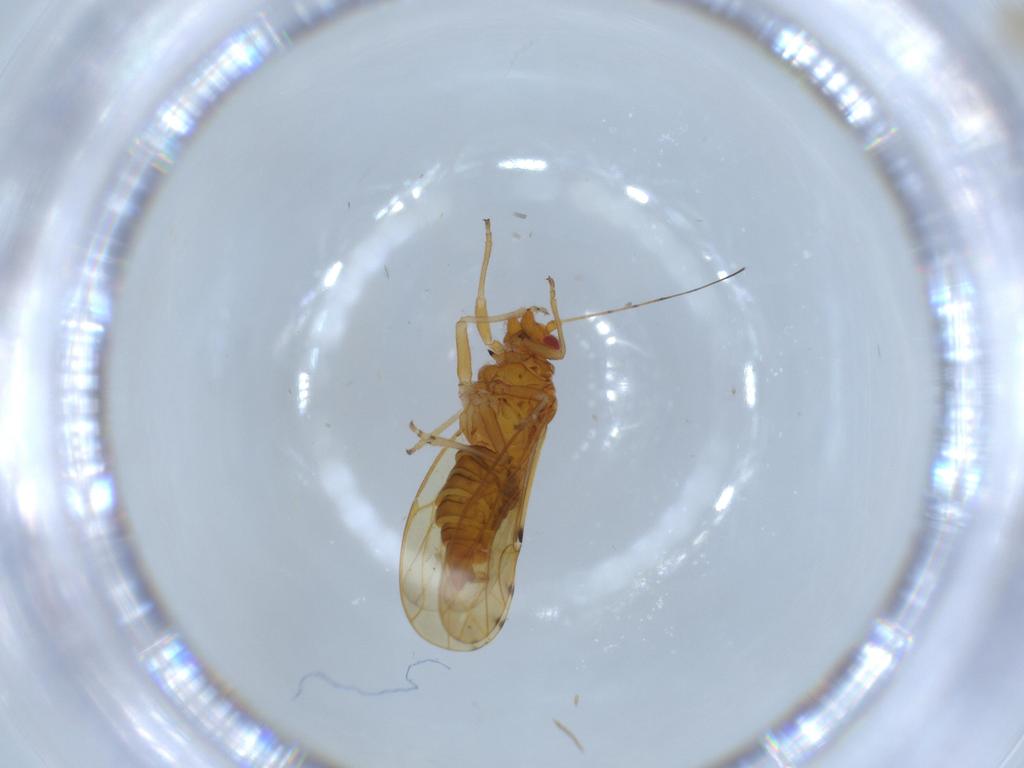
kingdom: Animalia
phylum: Arthropoda
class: Insecta
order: Hemiptera
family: Psylloidea_incertae_sedis
